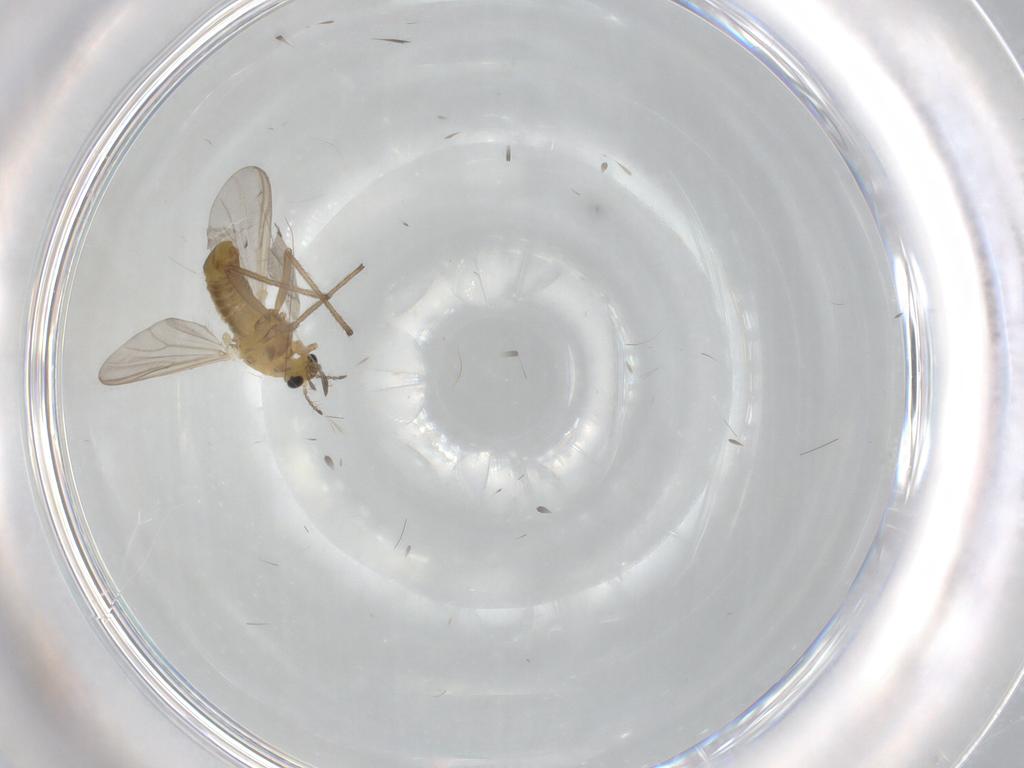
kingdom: Animalia
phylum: Arthropoda
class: Insecta
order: Diptera
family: Chironomidae
